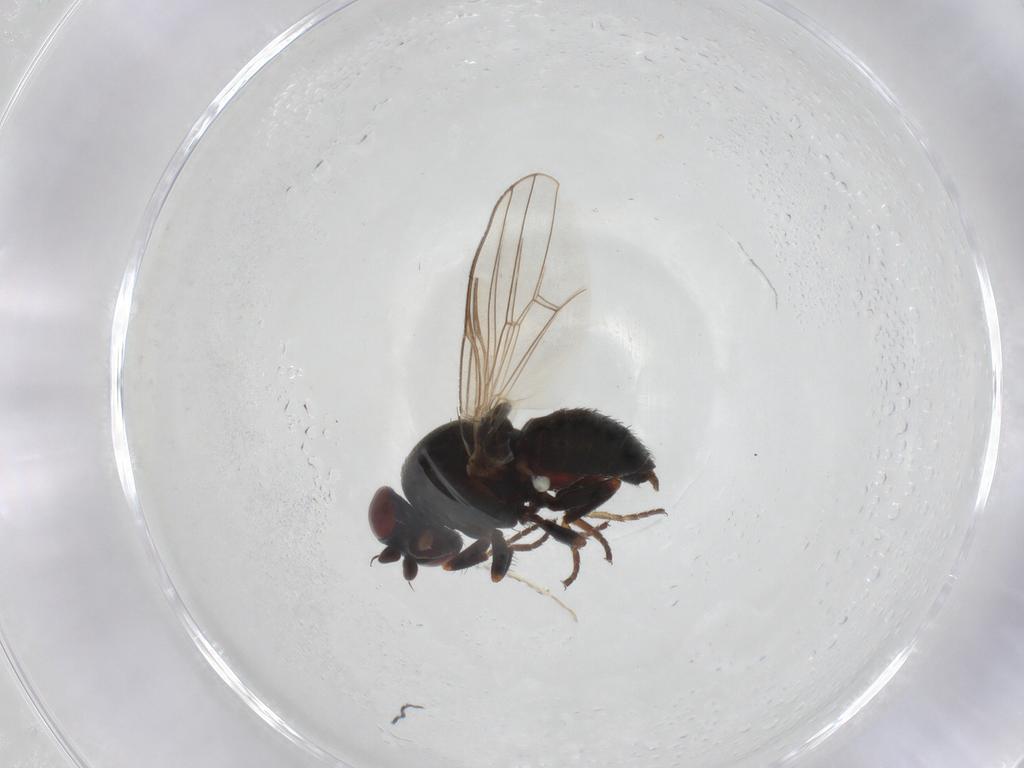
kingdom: Animalia
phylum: Arthropoda
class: Insecta
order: Diptera
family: Chamaemyiidae
